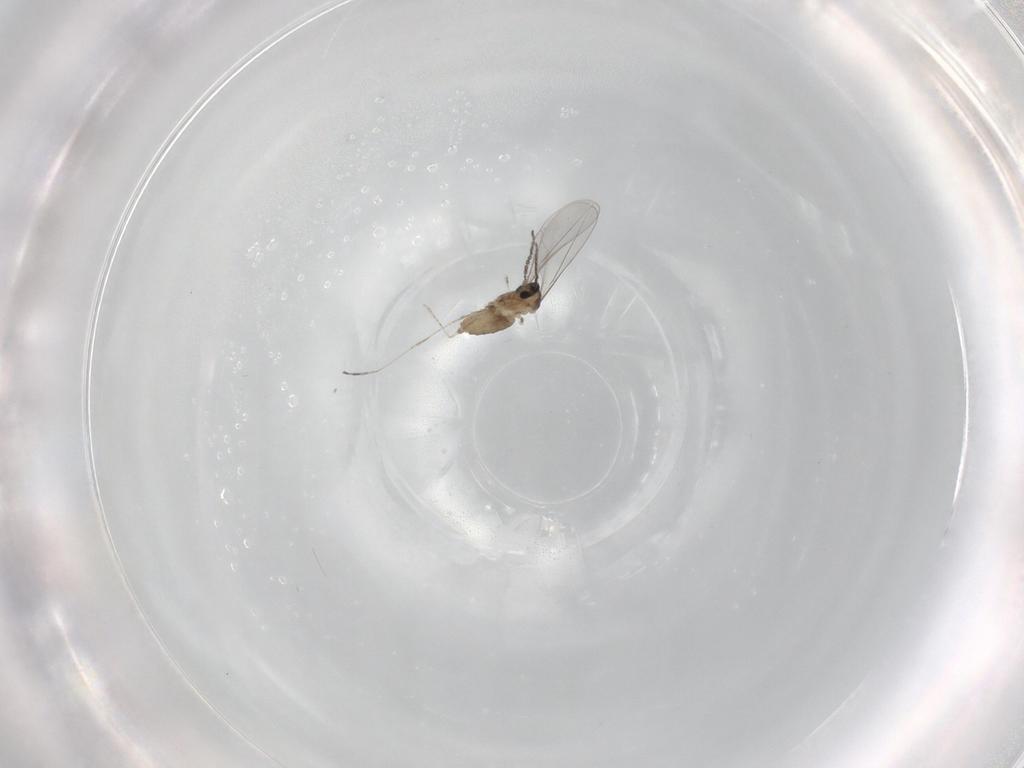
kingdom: Animalia
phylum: Arthropoda
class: Insecta
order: Diptera
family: Cecidomyiidae
